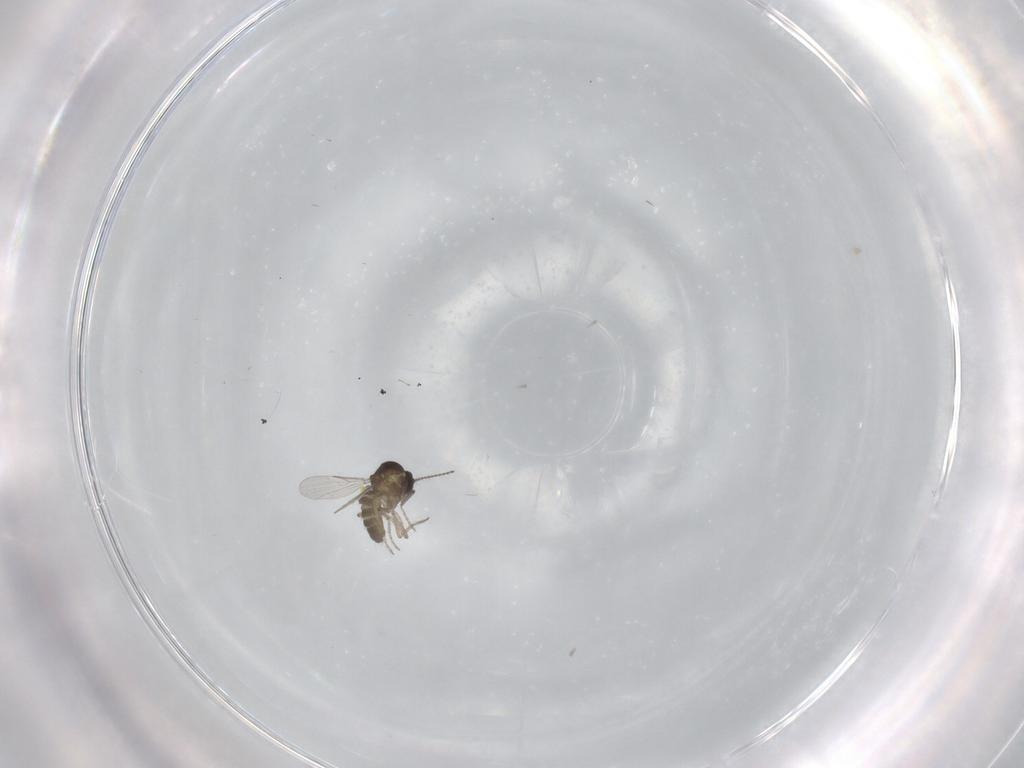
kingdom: Animalia
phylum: Arthropoda
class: Insecta
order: Diptera
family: Ceratopogonidae
